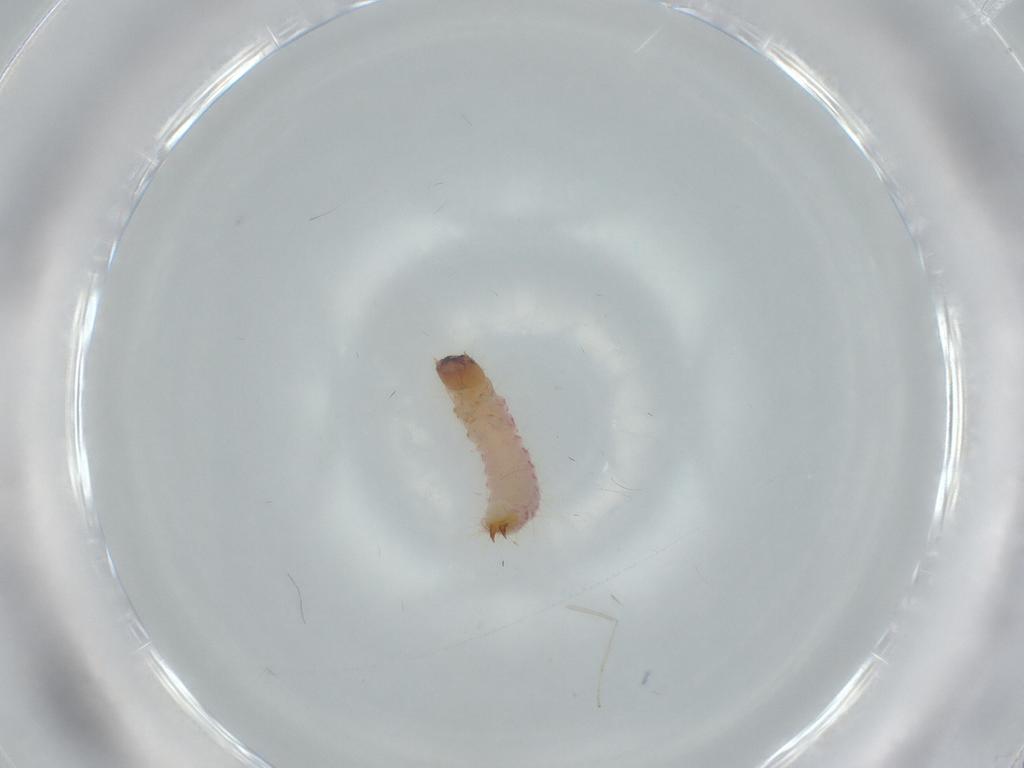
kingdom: Animalia
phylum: Arthropoda
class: Insecta
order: Coleoptera
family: Cleridae
